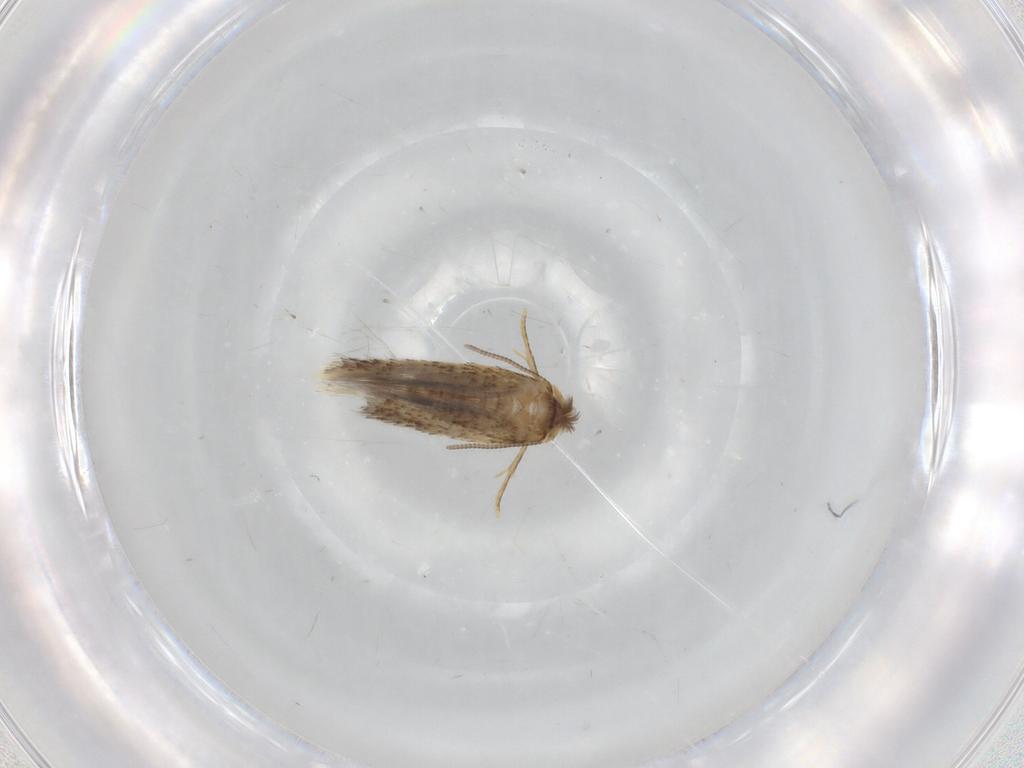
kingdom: Animalia
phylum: Arthropoda
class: Insecta
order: Lepidoptera
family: Nepticulidae
